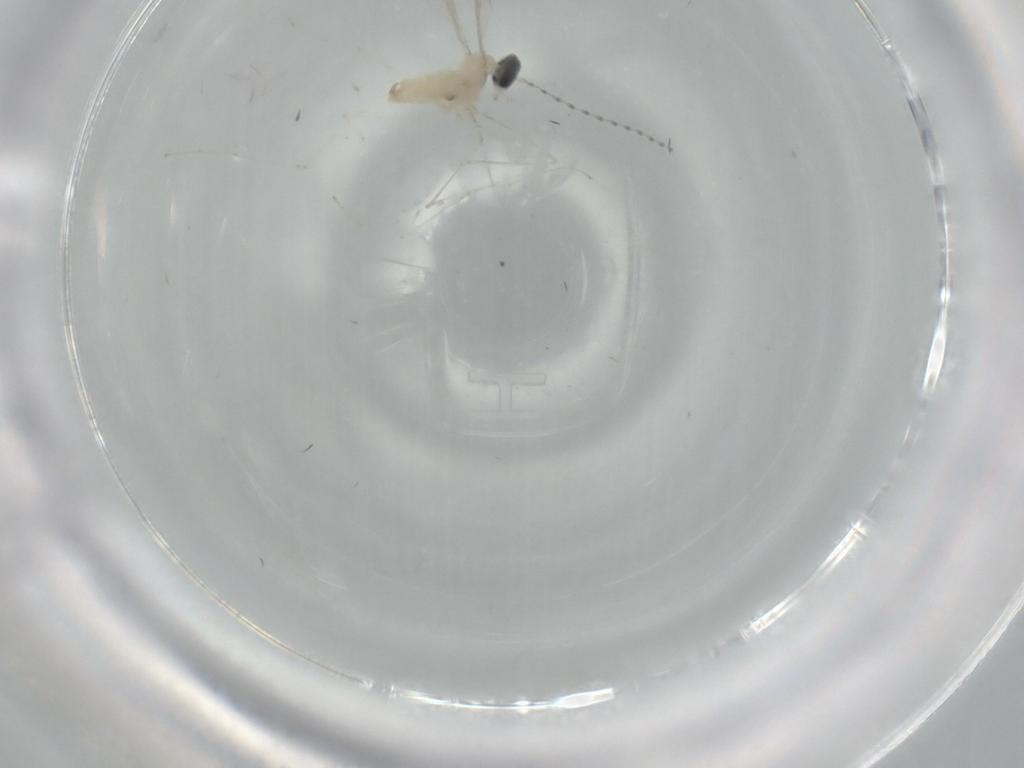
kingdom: Animalia
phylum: Arthropoda
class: Insecta
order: Diptera
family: Cecidomyiidae
